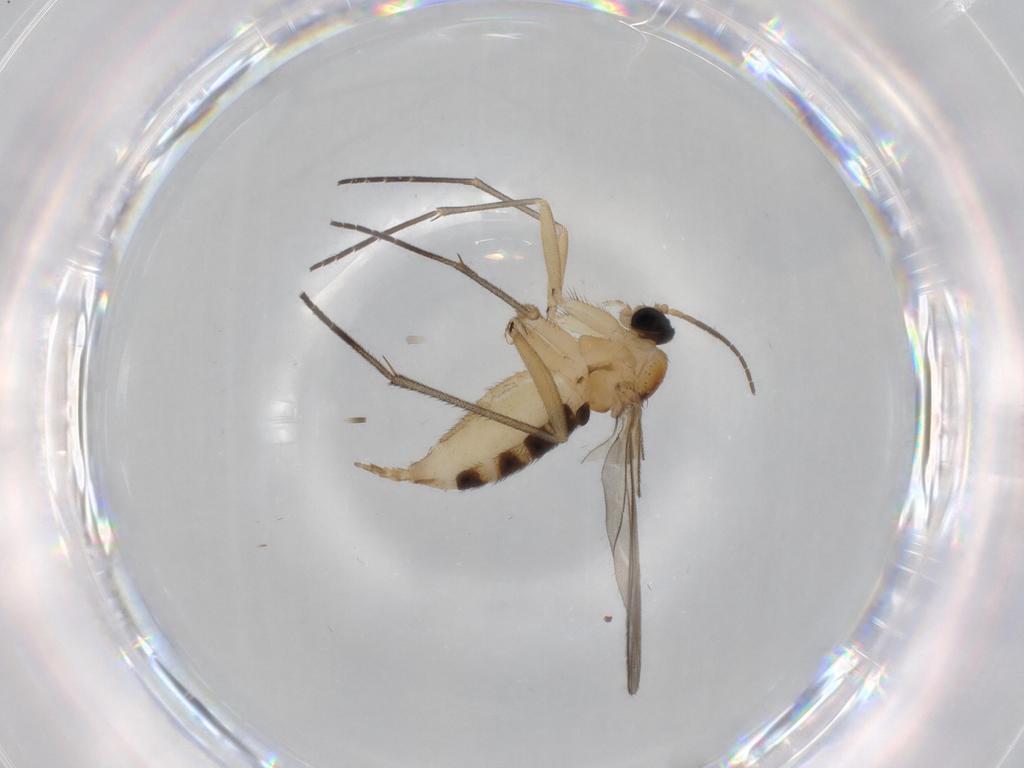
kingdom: Animalia
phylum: Arthropoda
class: Insecta
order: Diptera
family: Sciaridae
